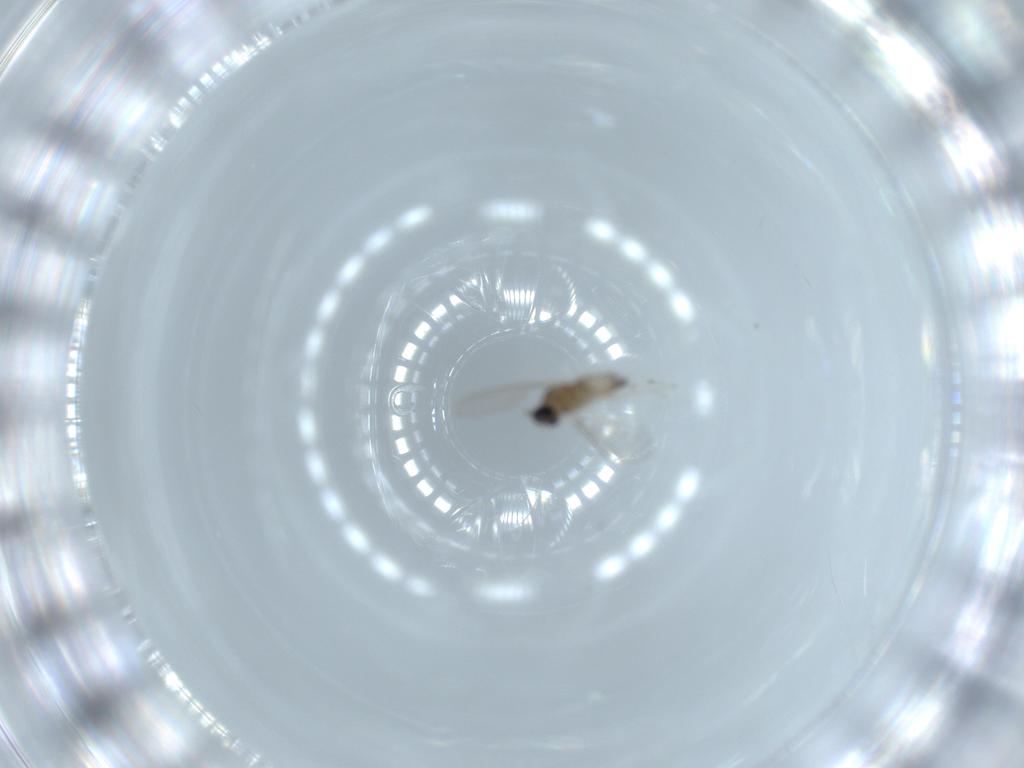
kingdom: Animalia
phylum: Arthropoda
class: Insecta
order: Diptera
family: Cecidomyiidae
